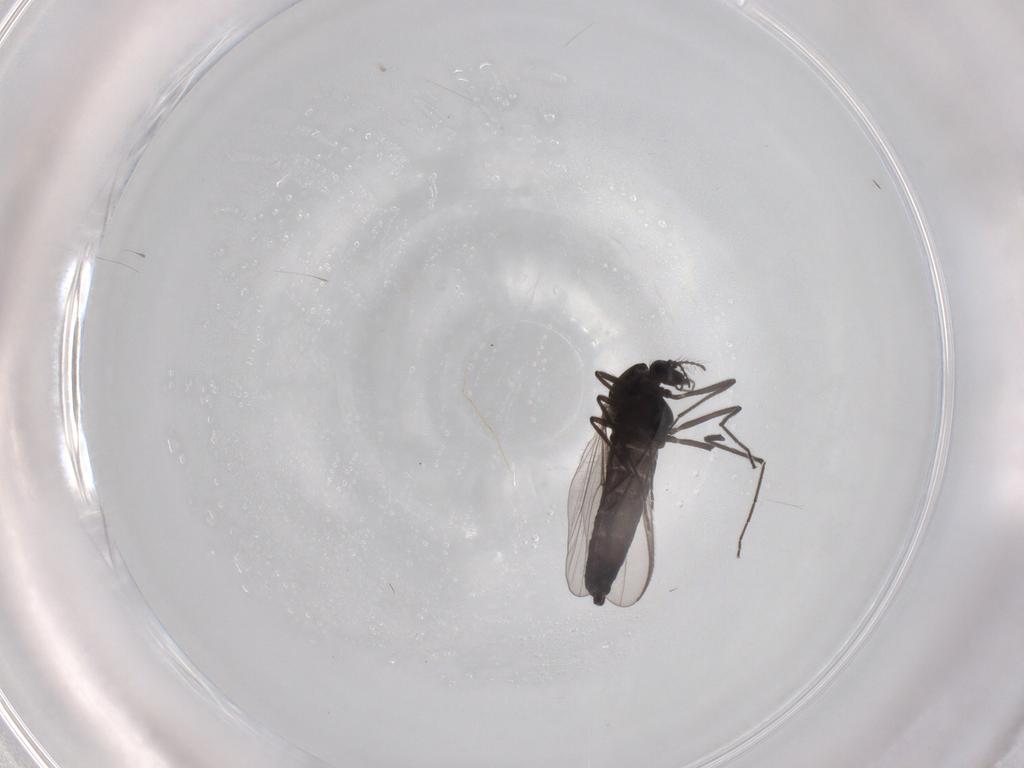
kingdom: Animalia
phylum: Arthropoda
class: Insecta
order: Diptera
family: Chironomidae
